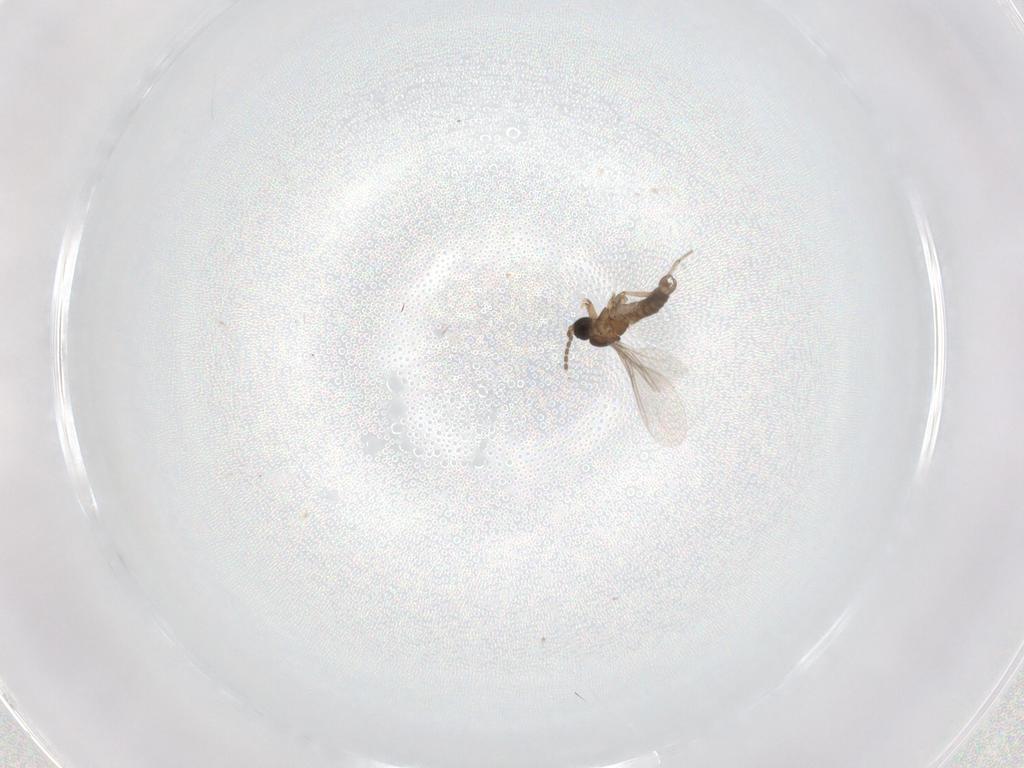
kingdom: Animalia
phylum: Arthropoda
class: Insecta
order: Diptera
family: Sciaridae
